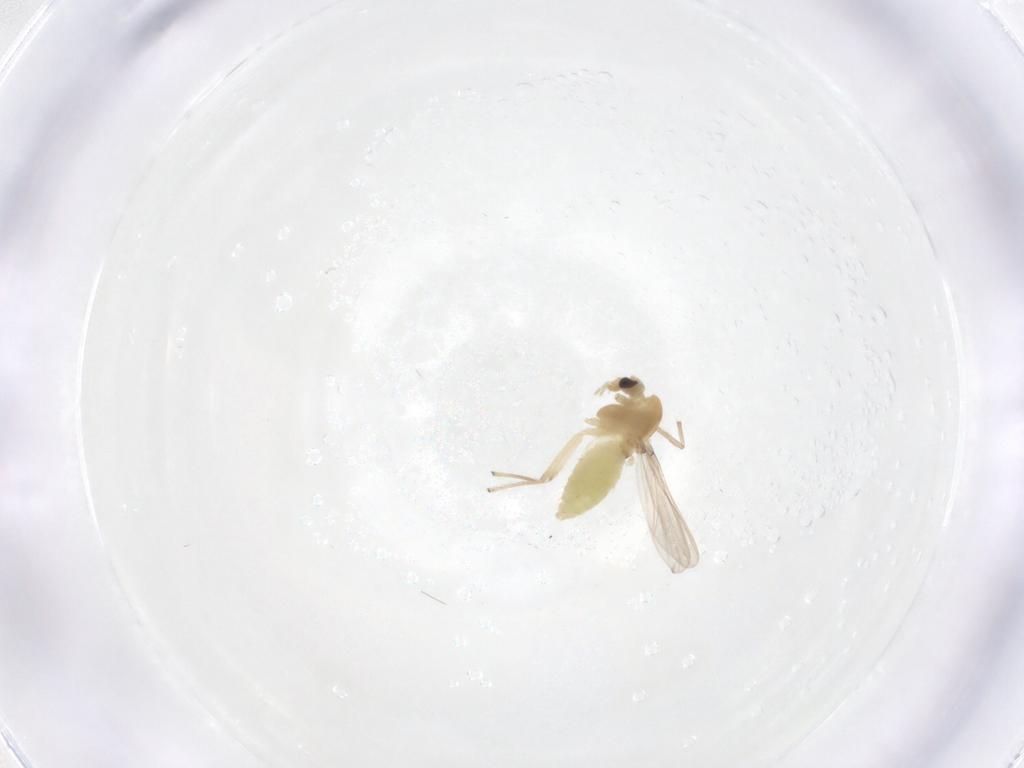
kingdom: Animalia
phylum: Arthropoda
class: Insecta
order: Diptera
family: Chironomidae
